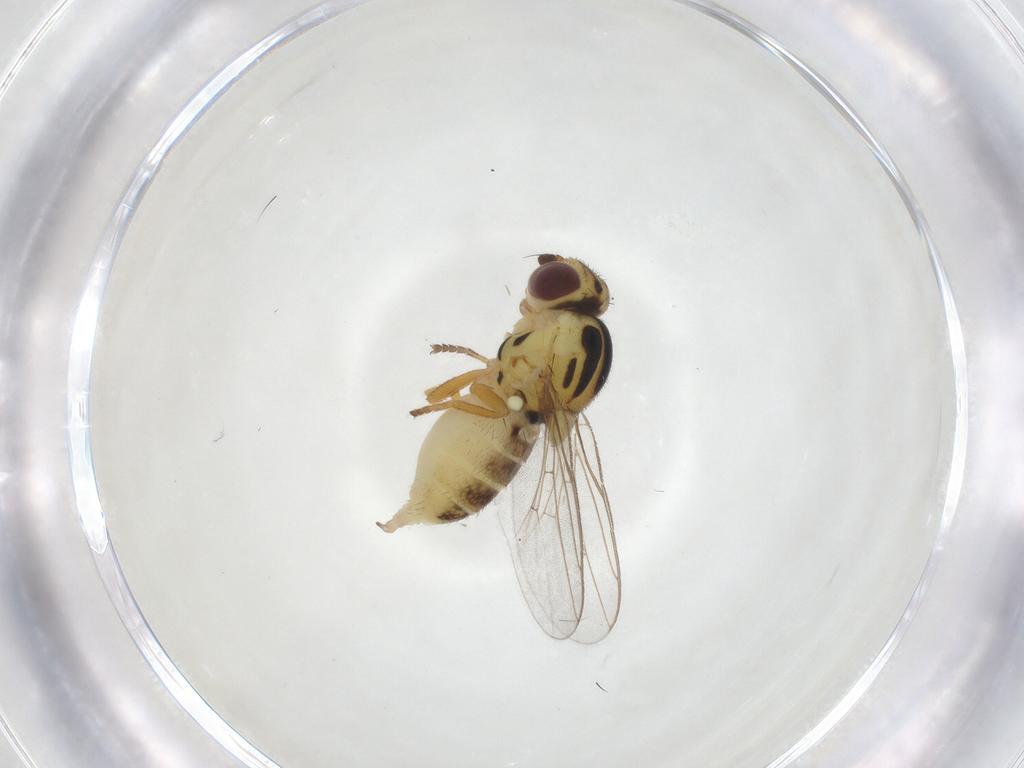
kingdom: Animalia
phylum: Arthropoda
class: Insecta
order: Diptera
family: Chloropidae
